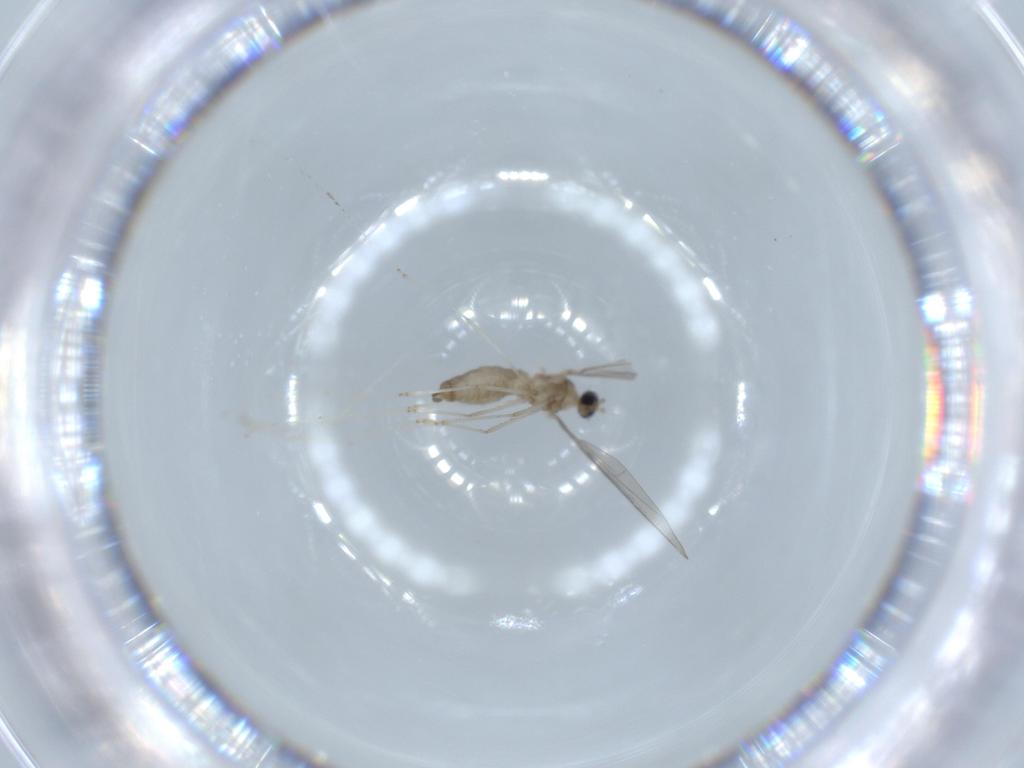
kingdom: Animalia
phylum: Arthropoda
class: Insecta
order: Diptera
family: Cecidomyiidae
